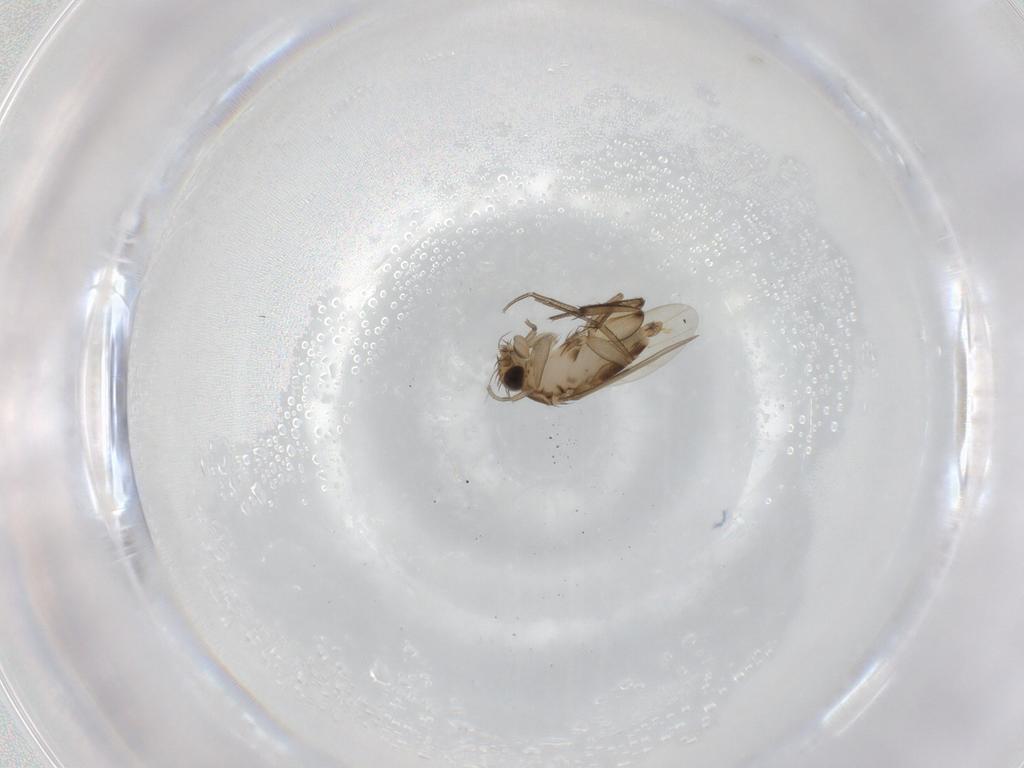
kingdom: Animalia
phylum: Arthropoda
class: Insecta
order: Diptera
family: Phoridae
